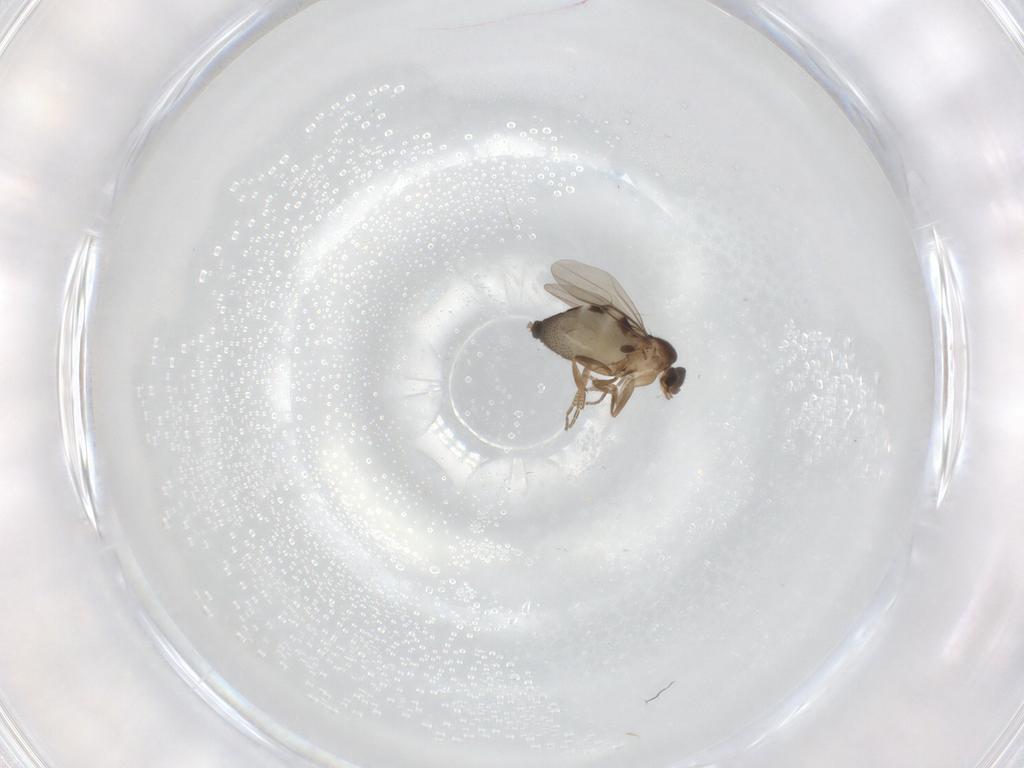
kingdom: Animalia
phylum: Arthropoda
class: Insecta
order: Diptera
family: Phoridae
